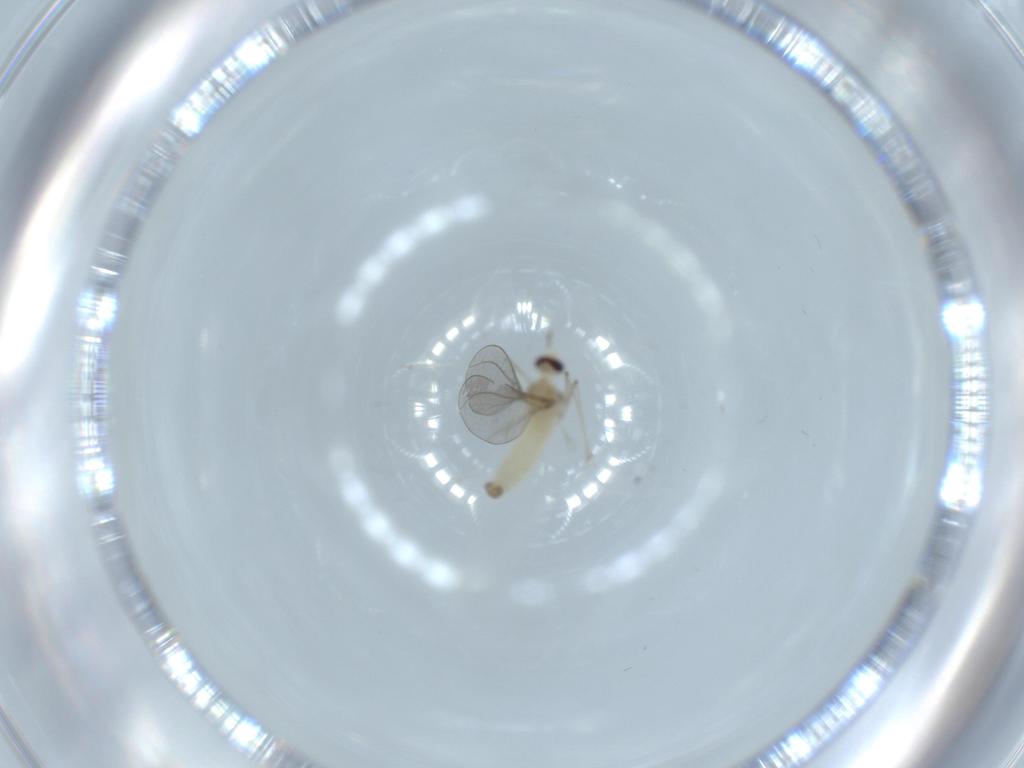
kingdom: Animalia
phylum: Arthropoda
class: Insecta
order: Diptera
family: Cecidomyiidae
